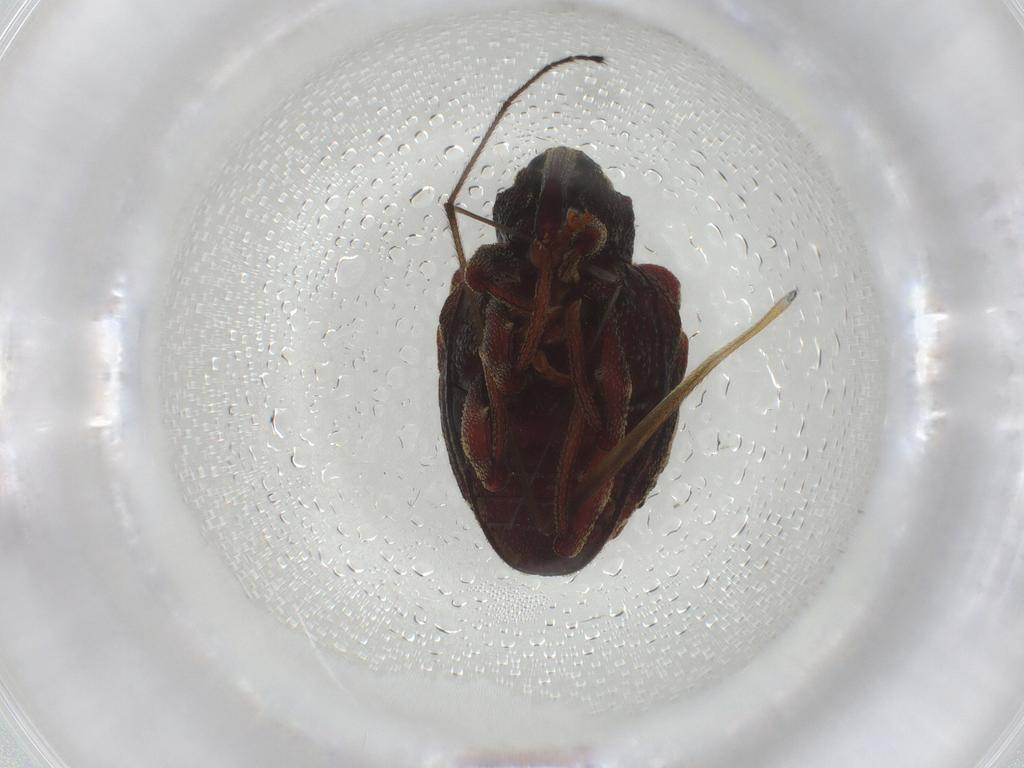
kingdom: Animalia
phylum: Arthropoda
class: Insecta
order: Coleoptera
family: Curculionidae
